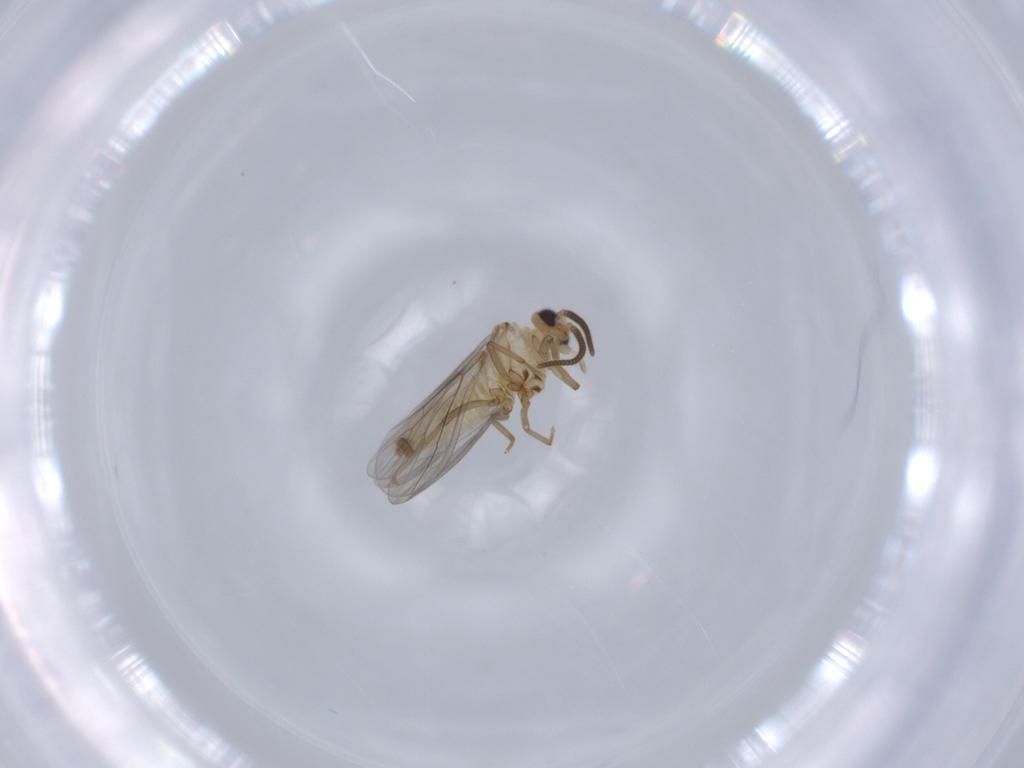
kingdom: Animalia
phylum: Arthropoda
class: Insecta
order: Neuroptera
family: Coniopterygidae
